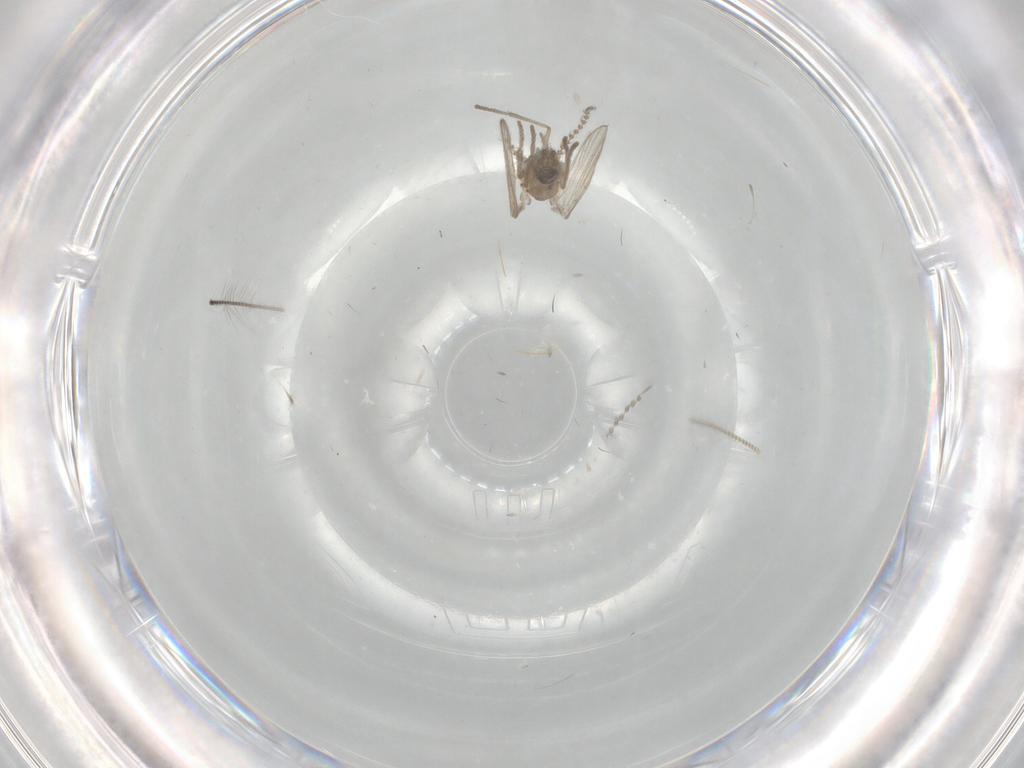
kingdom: Animalia
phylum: Arthropoda
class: Insecta
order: Diptera
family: Psychodidae
